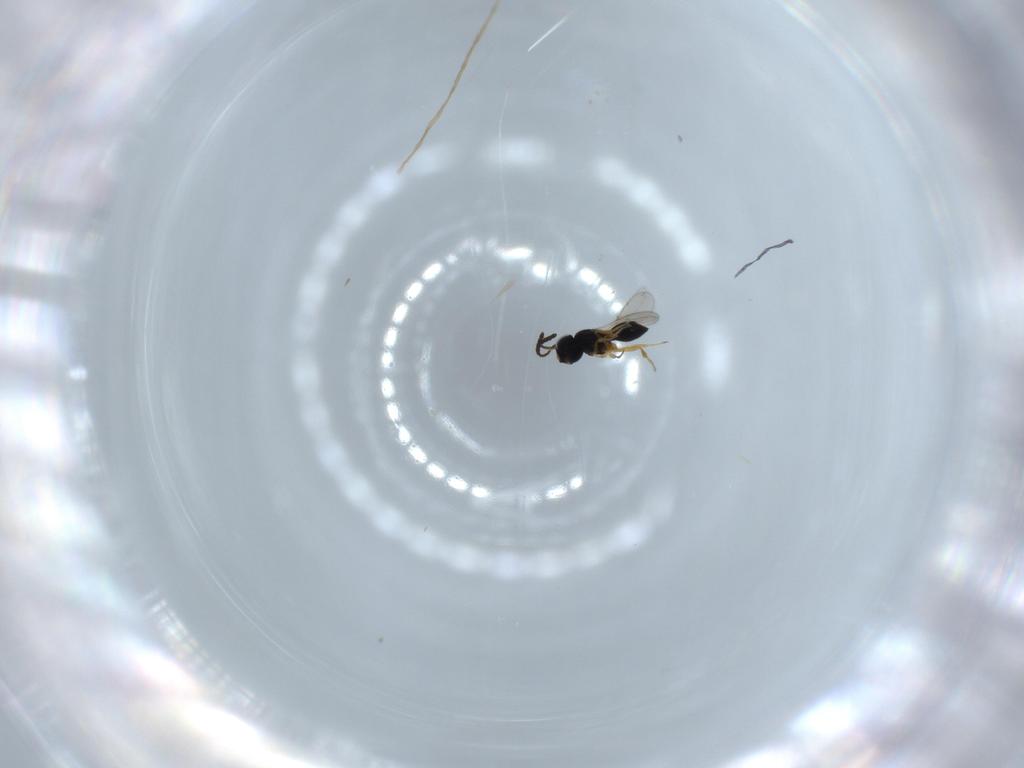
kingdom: Animalia
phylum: Arthropoda
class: Insecta
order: Hymenoptera
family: Scelionidae
